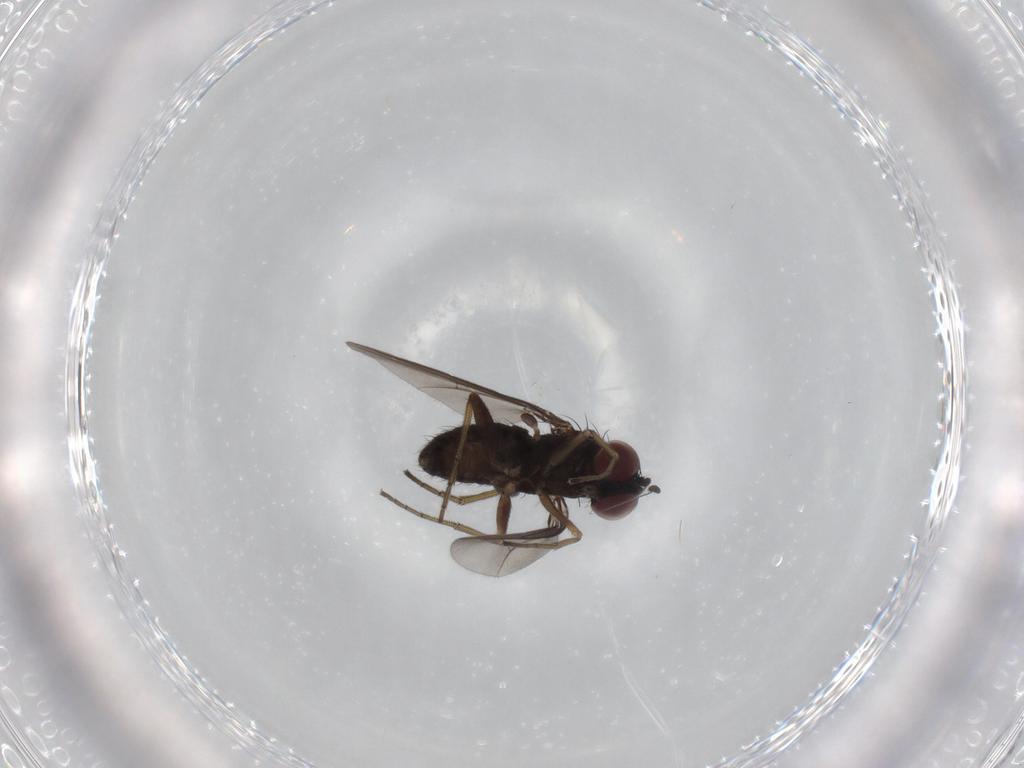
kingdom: Animalia
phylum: Arthropoda
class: Insecta
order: Diptera
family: Dolichopodidae
